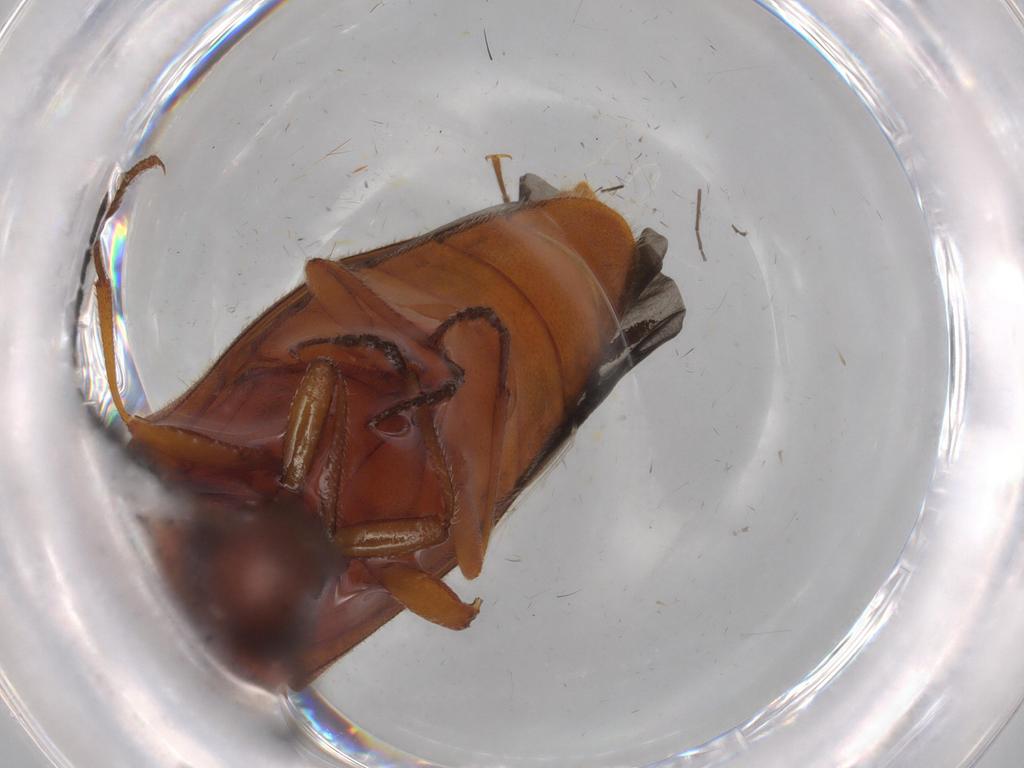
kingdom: Animalia
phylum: Arthropoda
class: Insecta
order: Coleoptera
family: Elateridae
